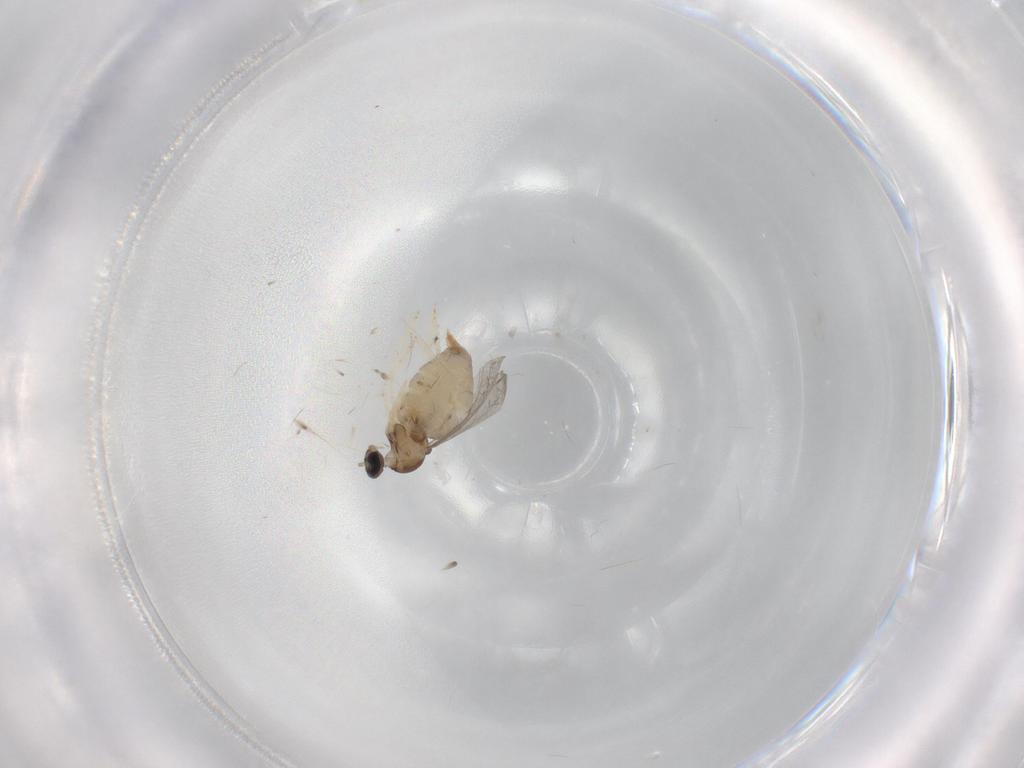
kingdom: Animalia
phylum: Arthropoda
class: Insecta
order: Diptera
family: Cecidomyiidae
